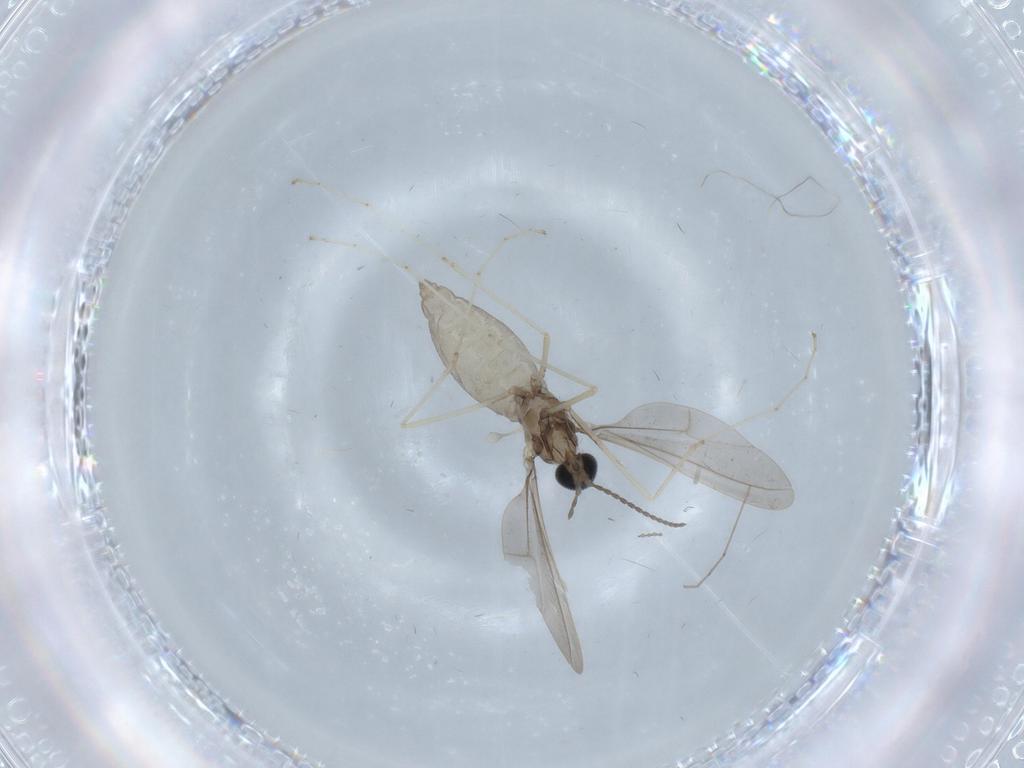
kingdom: Animalia
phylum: Arthropoda
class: Insecta
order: Diptera
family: Cecidomyiidae
